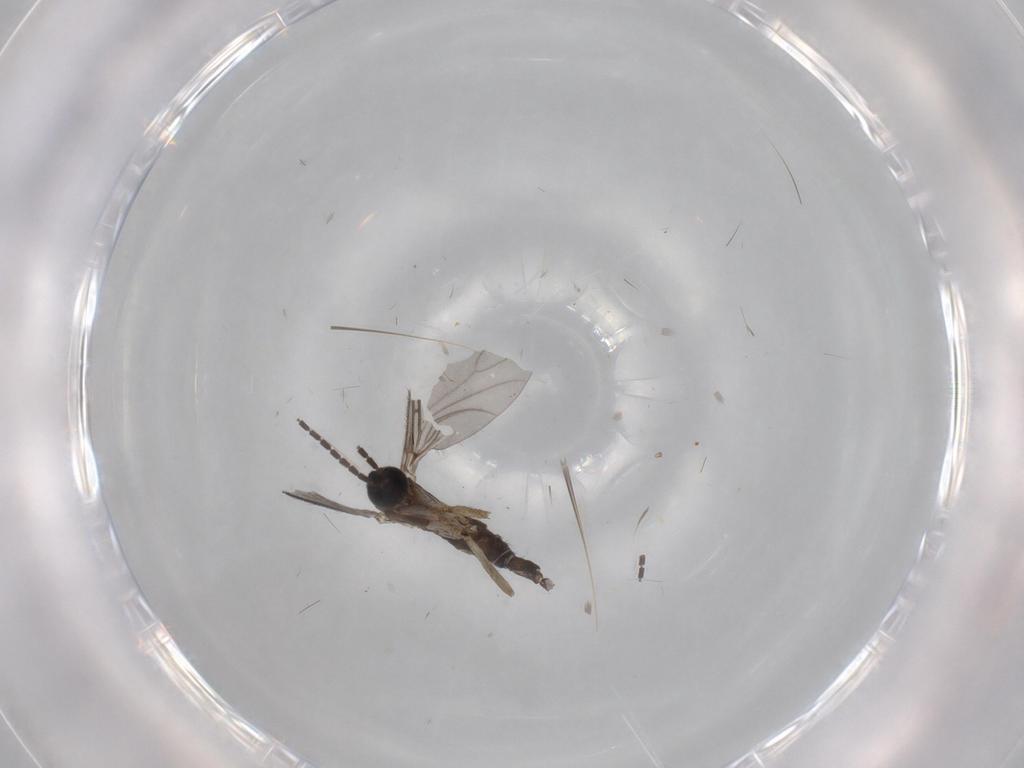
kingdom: Animalia
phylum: Arthropoda
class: Insecta
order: Diptera
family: Sciaridae
